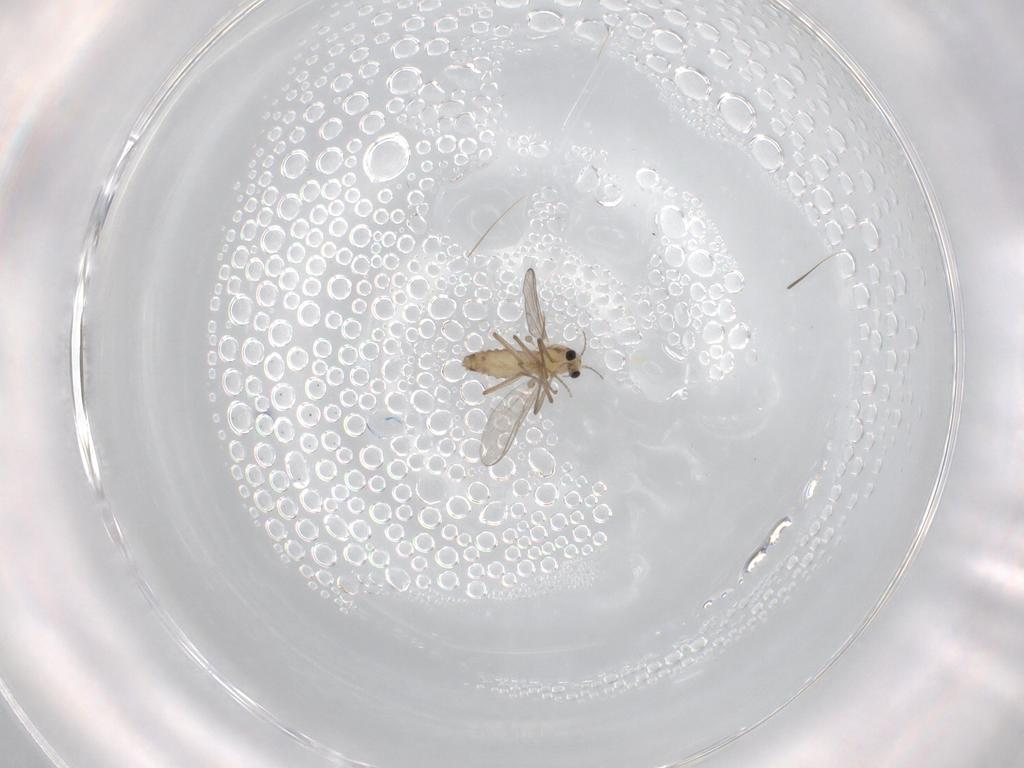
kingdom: Animalia
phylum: Arthropoda
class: Insecta
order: Diptera
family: Chironomidae
